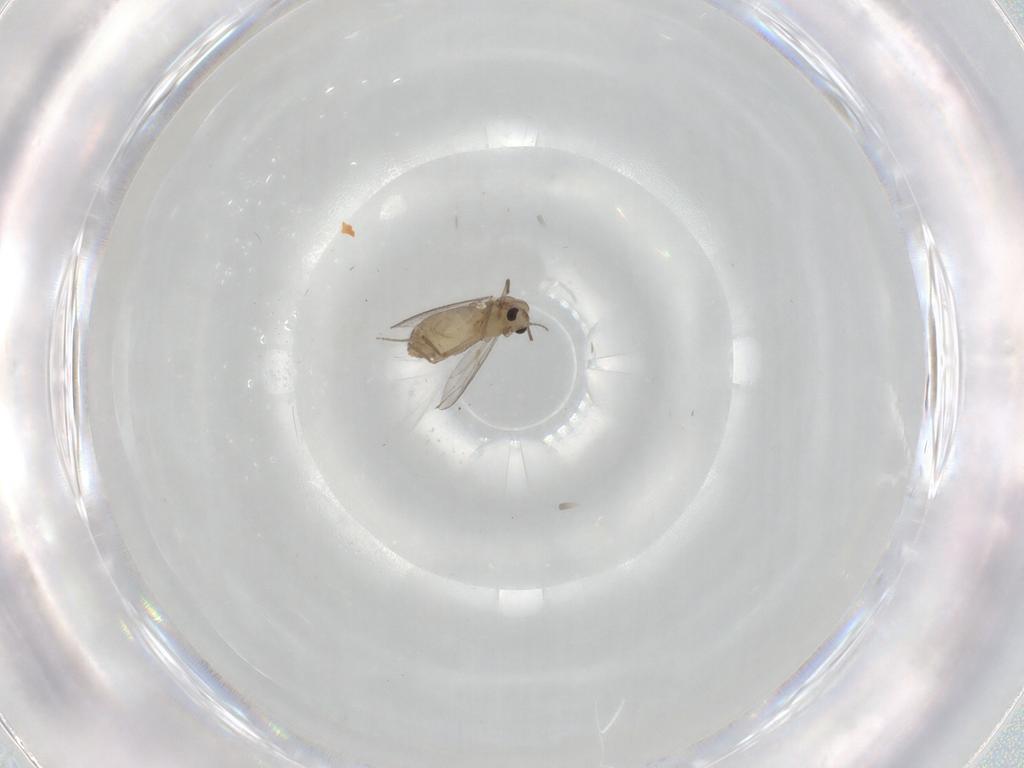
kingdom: Animalia
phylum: Arthropoda
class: Insecta
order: Diptera
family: Chironomidae
